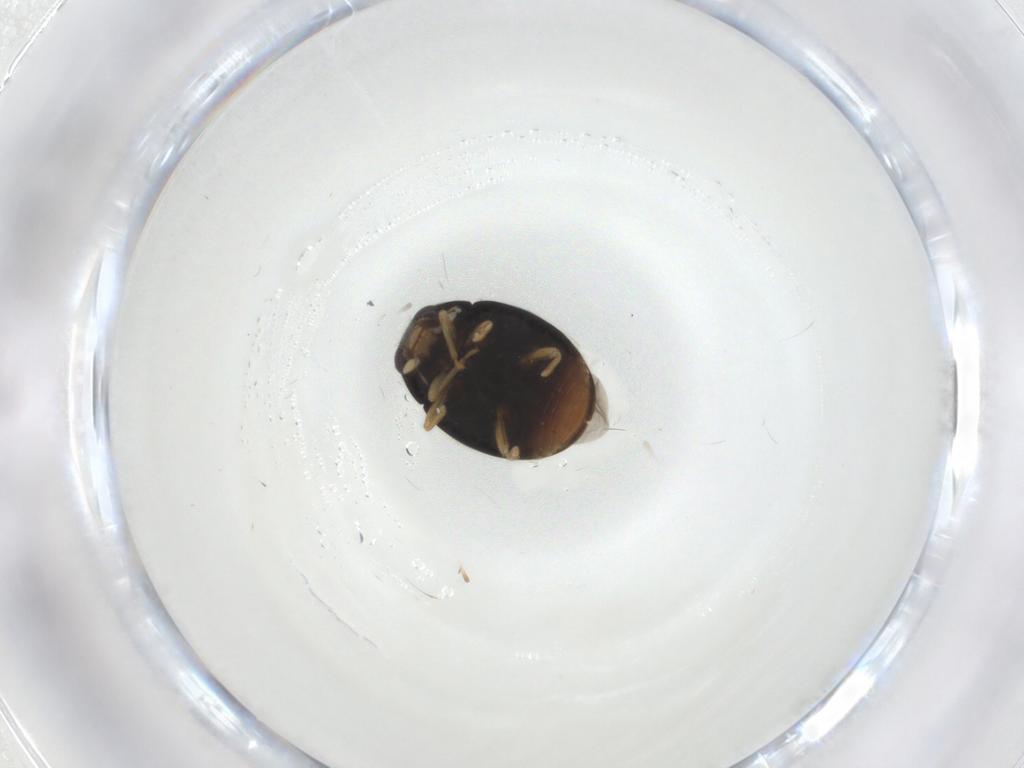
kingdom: Animalia
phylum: Arthropoda
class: Insecta
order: Coleoptera
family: Coccinellidae
